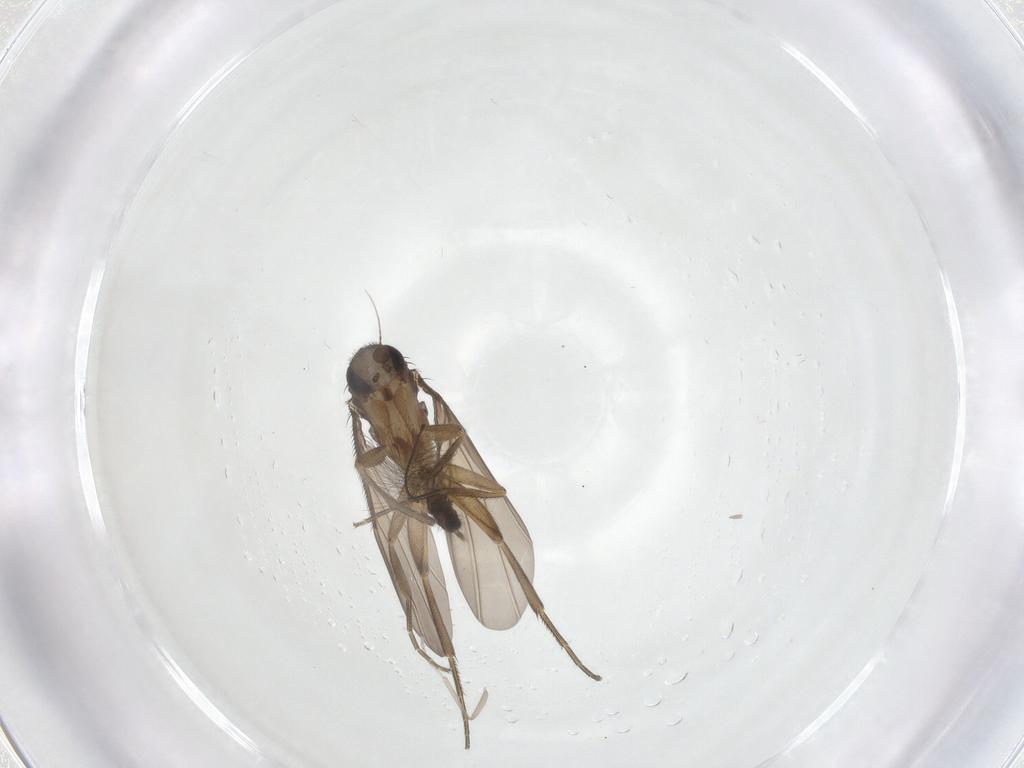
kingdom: Animalia
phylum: Arthropoda
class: Insecta
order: Diptera
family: Cecidomyiidae
